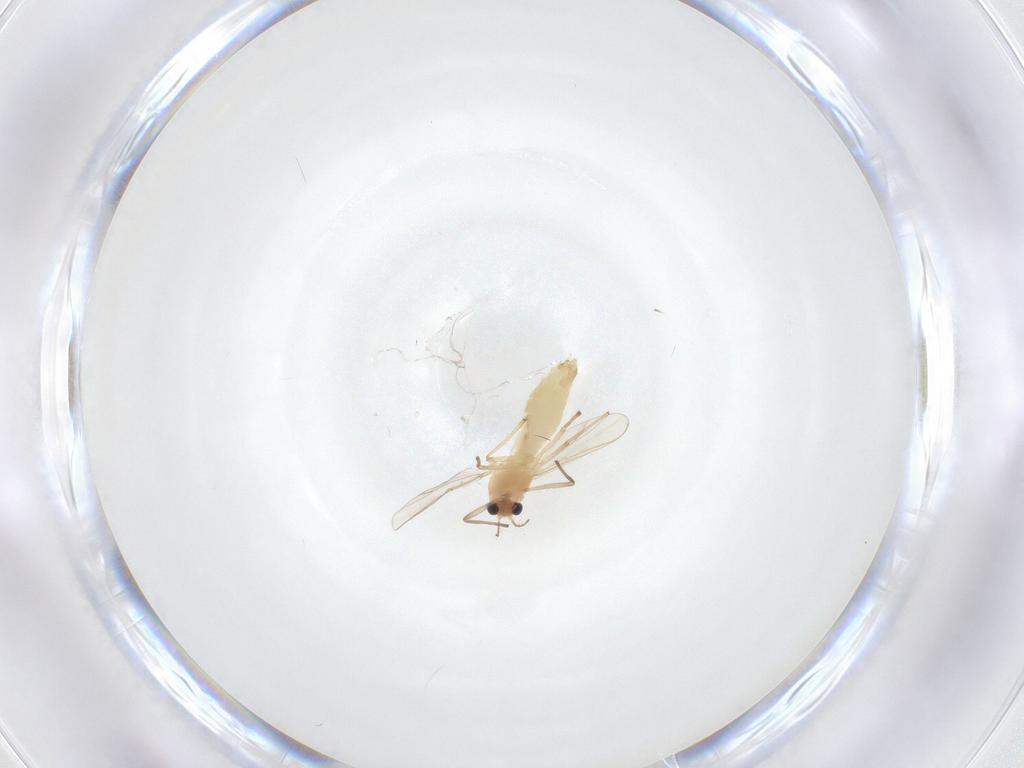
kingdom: Animalia
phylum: Arthropoda
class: Insecta
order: Diptera
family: Chironomidae
